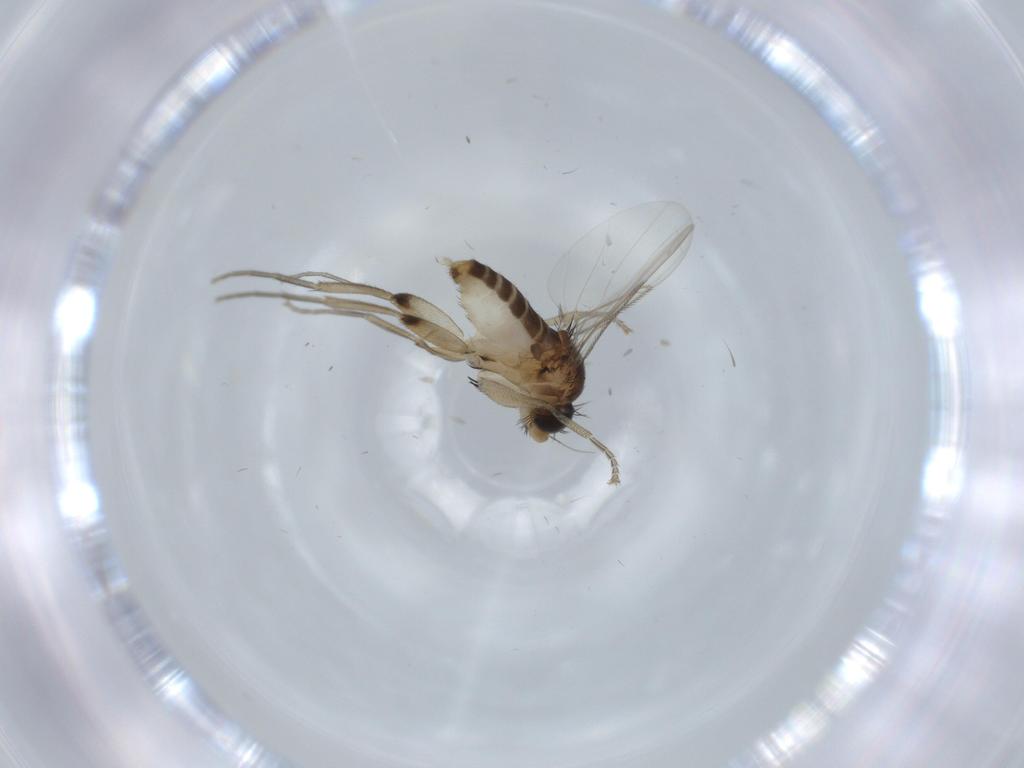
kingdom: Animalia
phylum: Arthropoda
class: Insecta
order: Diptera
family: Phoridae
